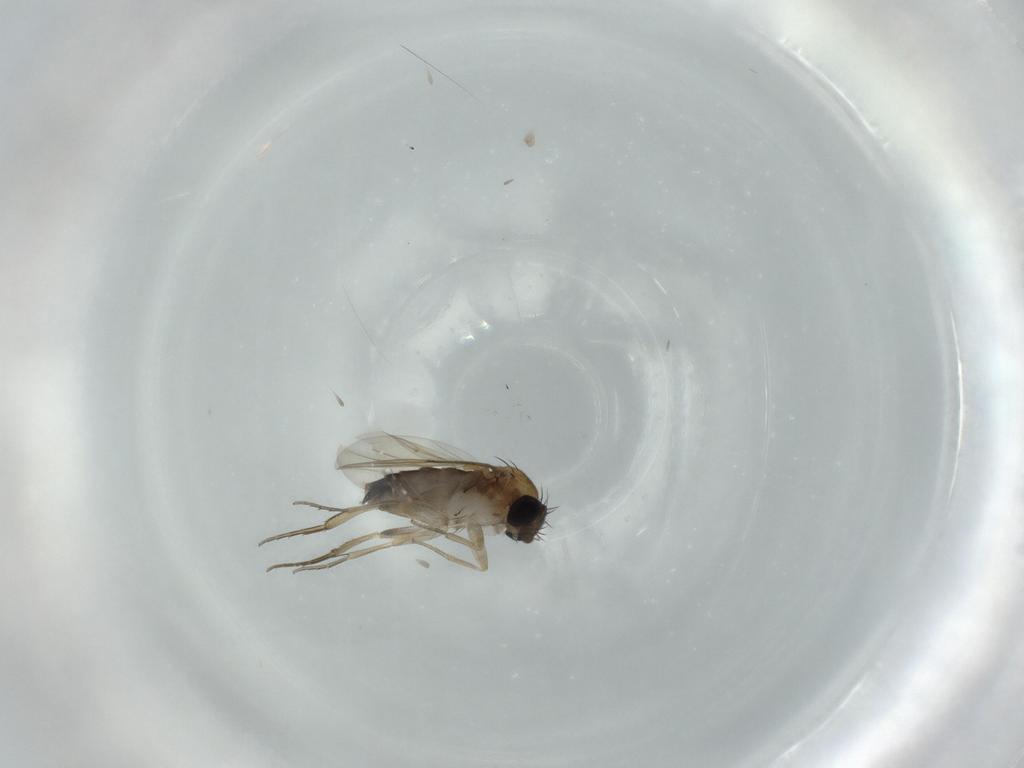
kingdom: Animalia
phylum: Arthropoda
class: Insecta
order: Diptera
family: Phoridae
